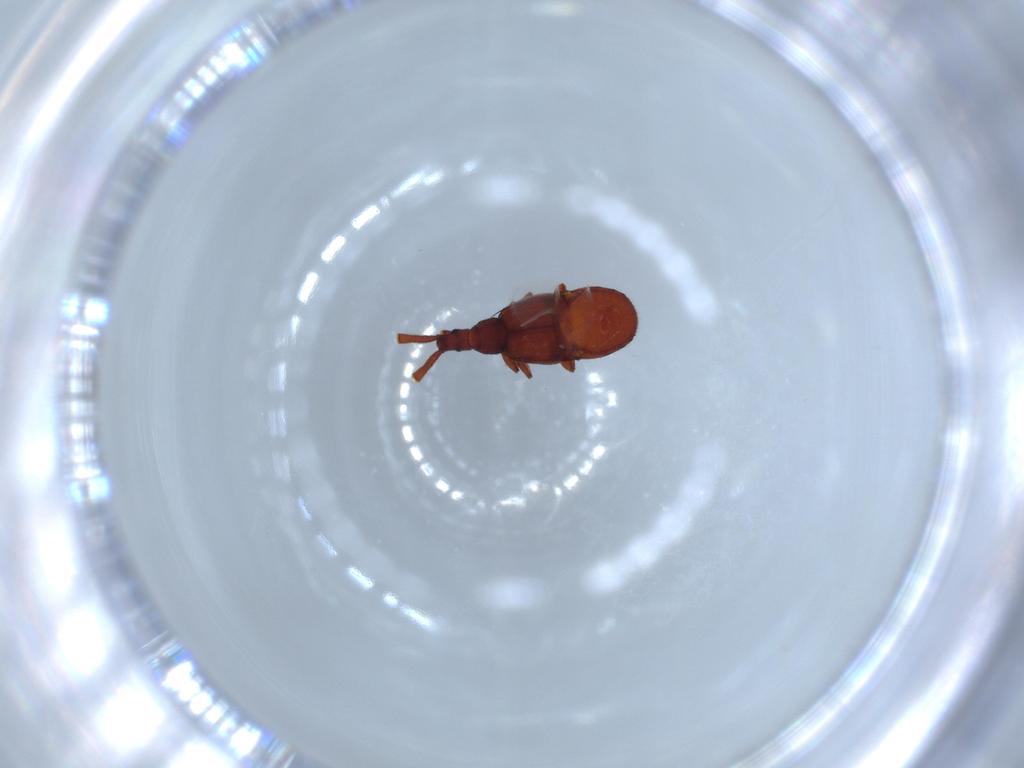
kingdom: Animalia
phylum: Arthropoda
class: Insecta
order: Coleoptera
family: Staphylinidae
